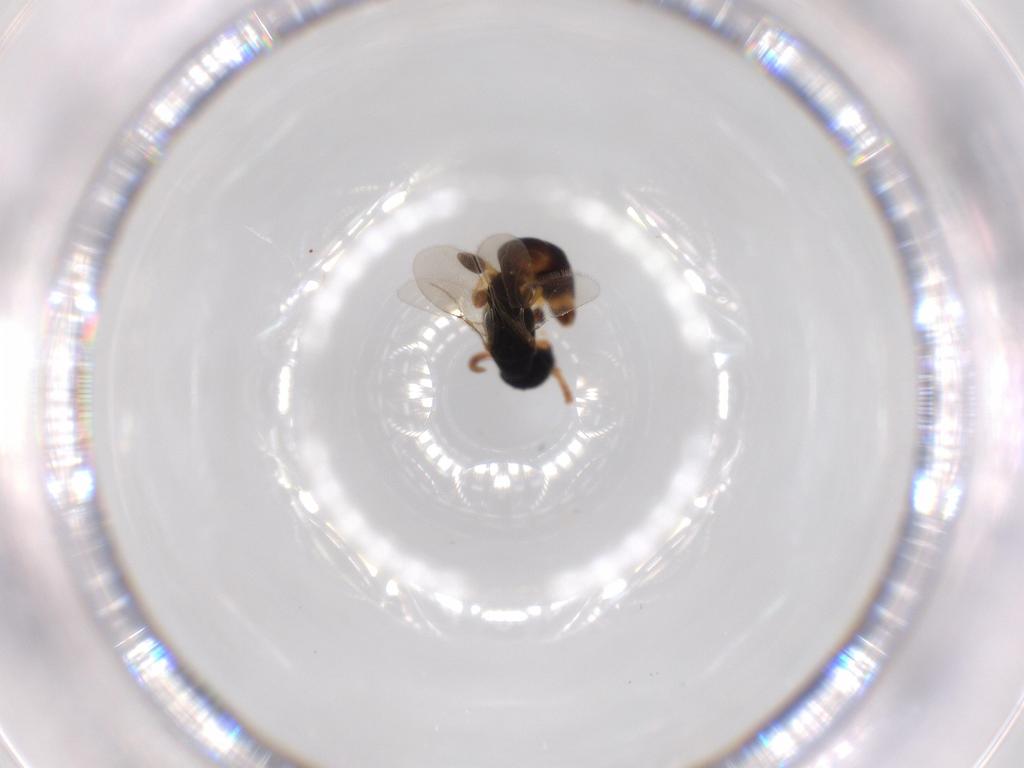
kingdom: Animalia
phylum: Arthropoda
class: Insecta
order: Hymenoptera
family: Bethylidae
